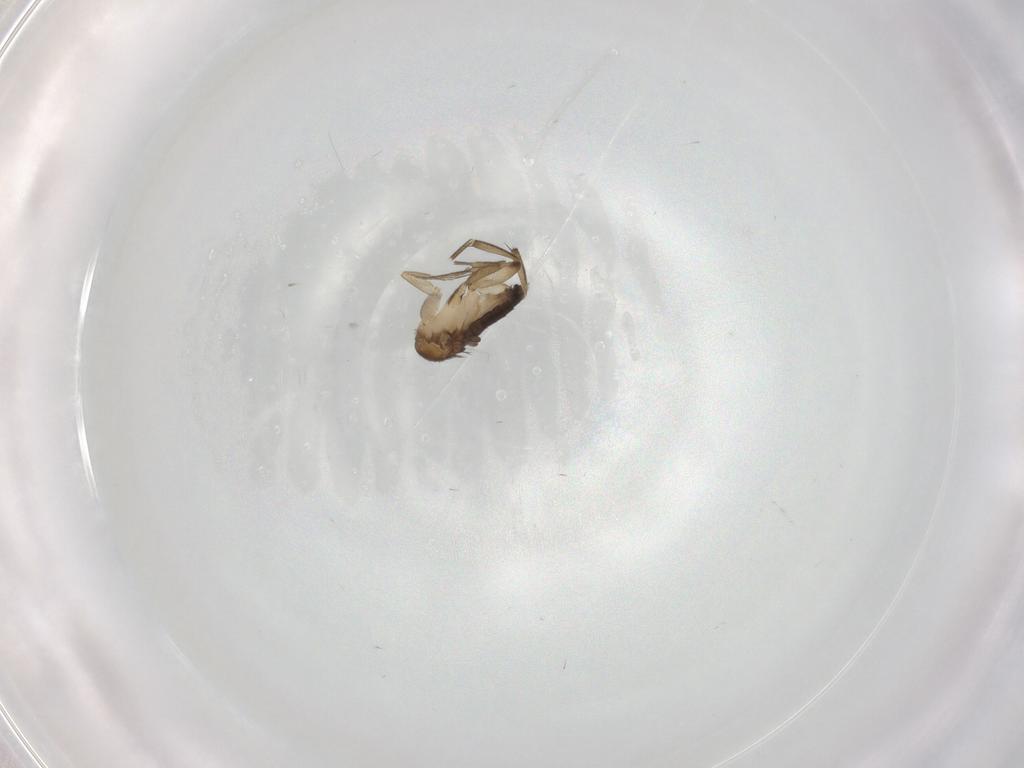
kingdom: Animalia
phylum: Arthropoda
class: Insecta
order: Diptera
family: Phoridae
